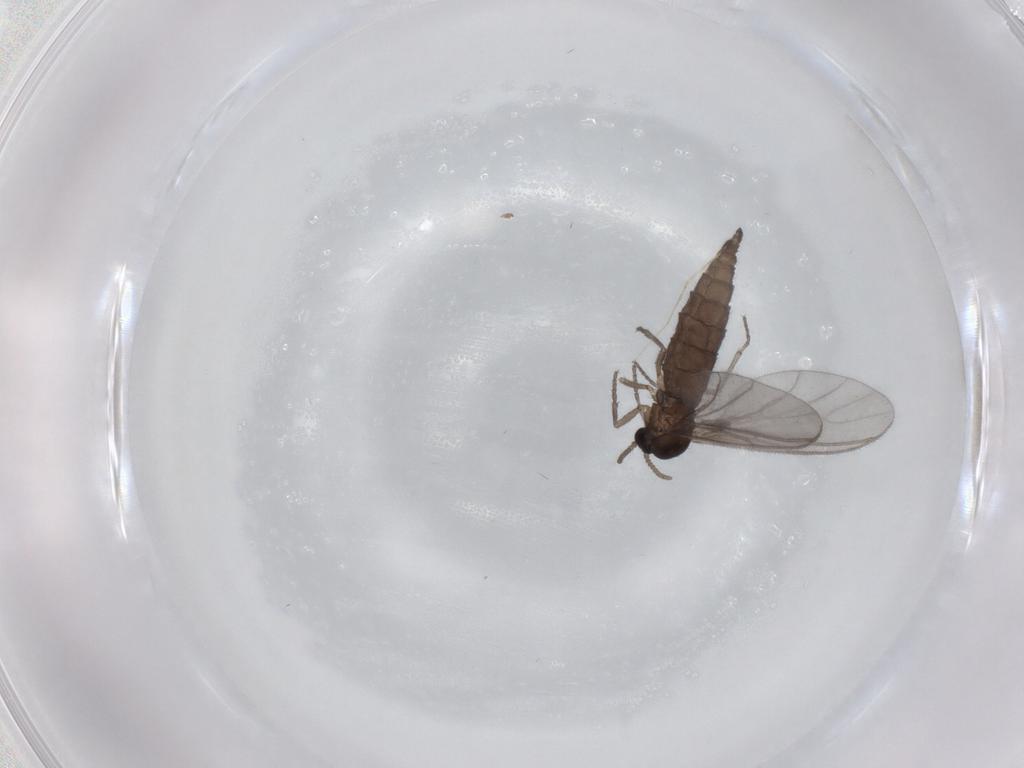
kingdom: Animalia
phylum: Arthropoda
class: Insecta
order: Diptera
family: Cecidomyiidae
